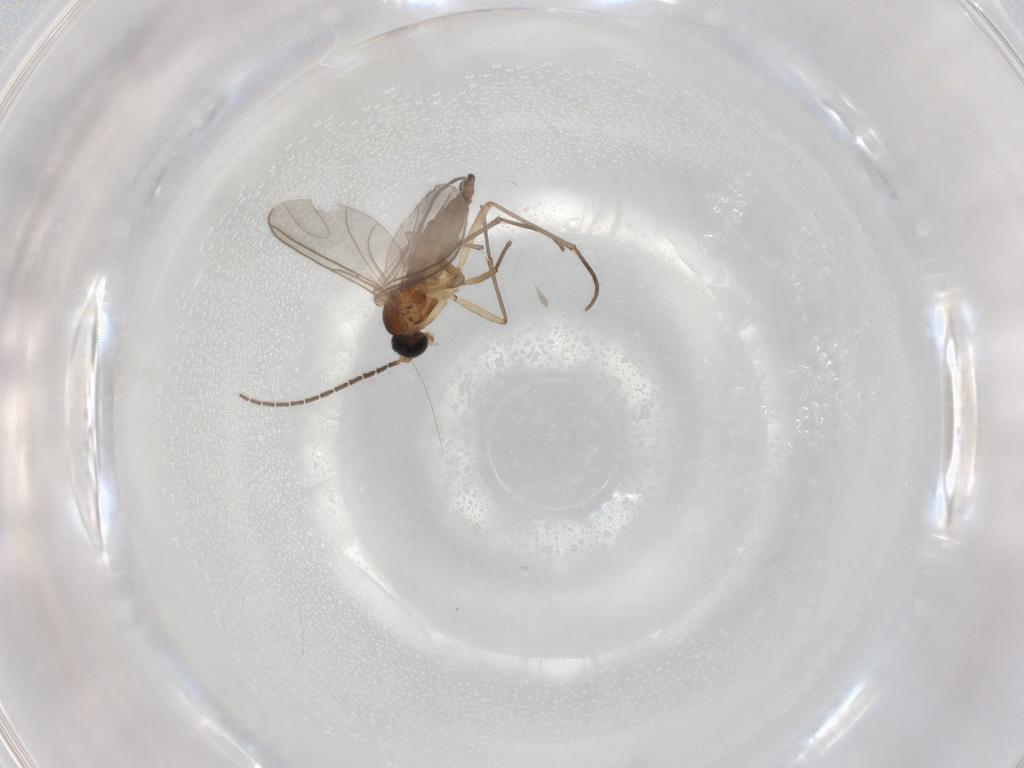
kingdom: Animalia
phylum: Arthropoda
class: Insecta
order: Diptera
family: Sciaridae
